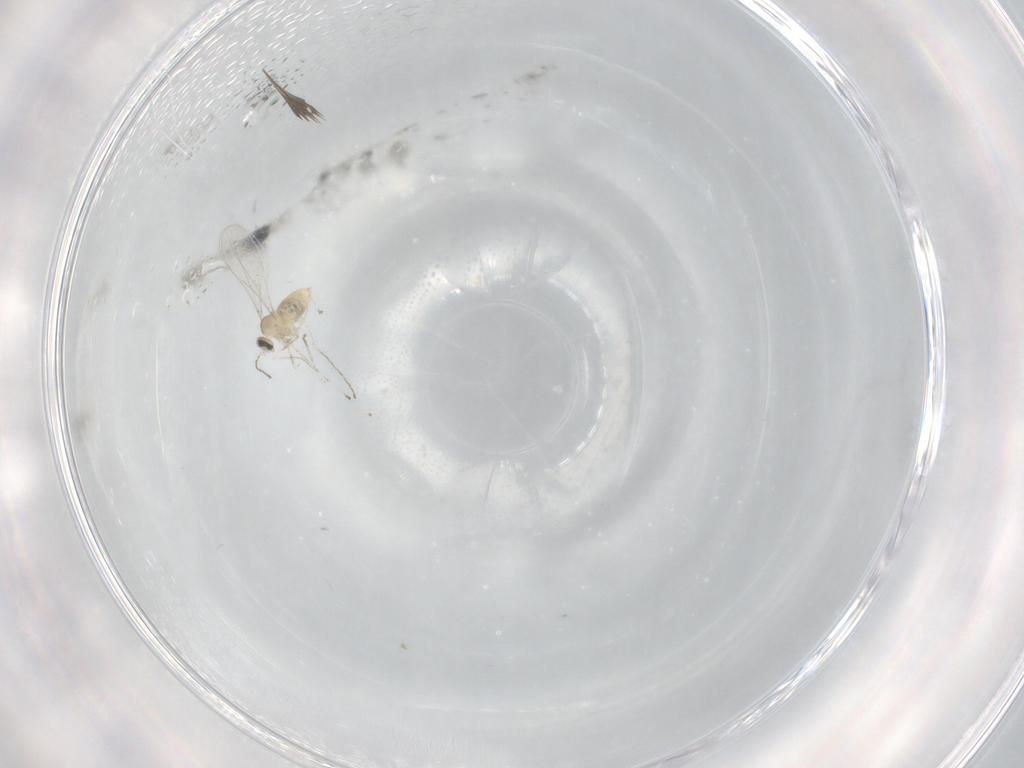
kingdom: Animalia
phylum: Arthropoda
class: Insecta
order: Diptera
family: Cecidomyiidae
